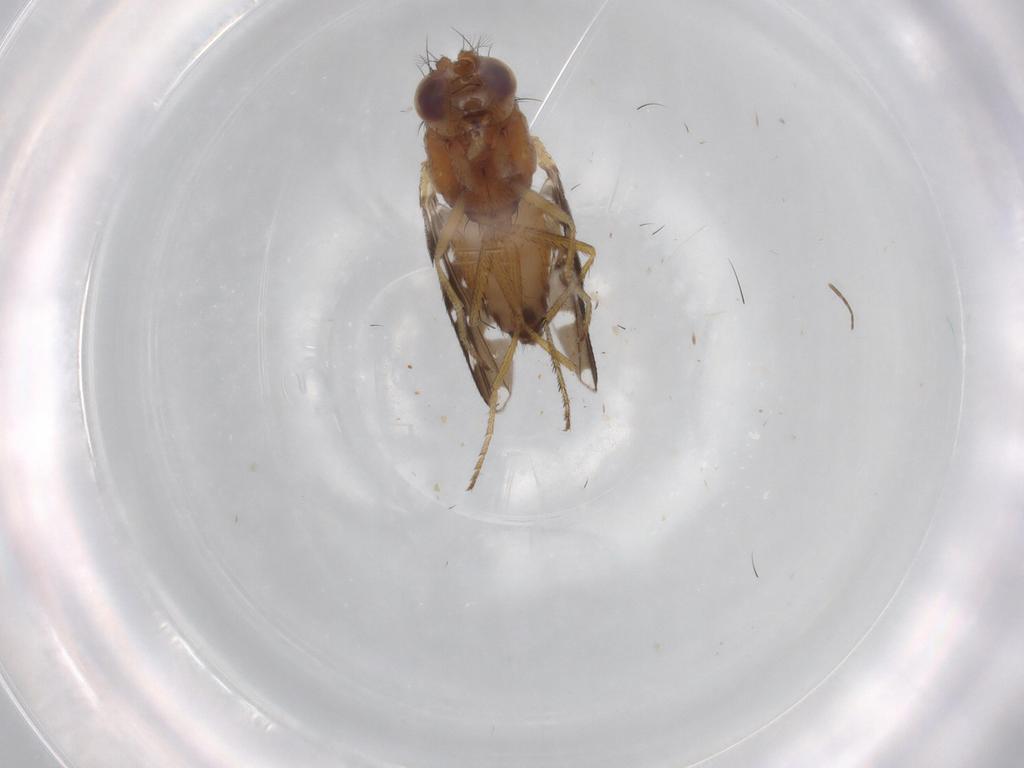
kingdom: Animalia
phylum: Arthropoda
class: Insecta
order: Diptera
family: Ephydridae
